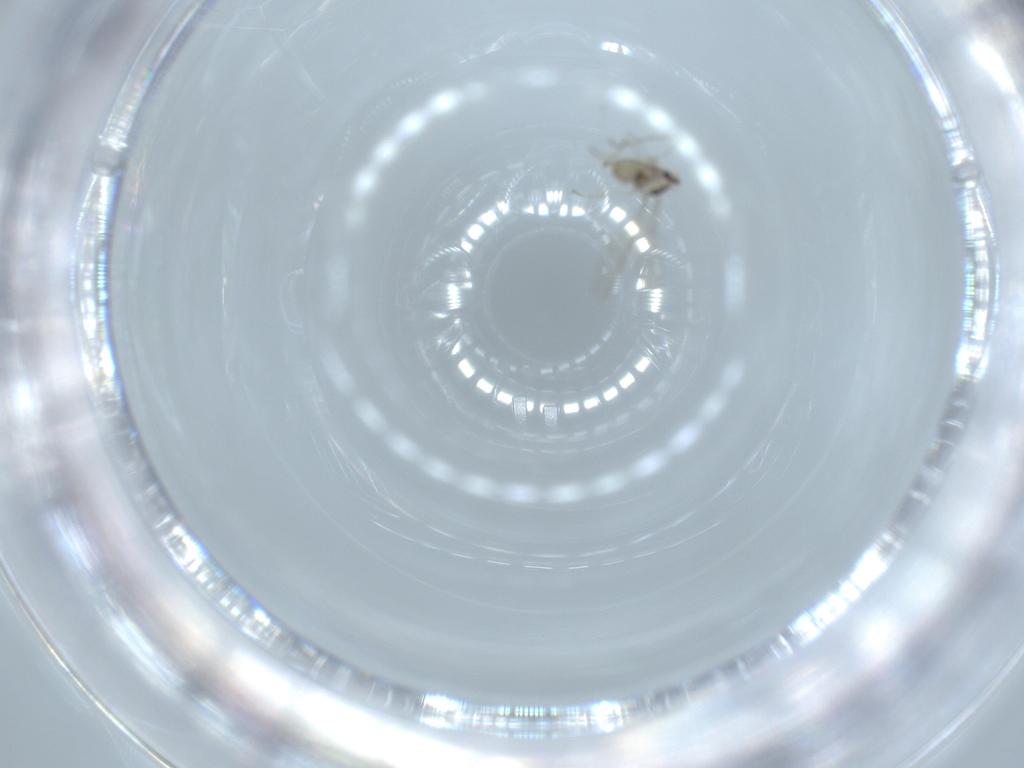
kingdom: Animalia
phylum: Arthropoda
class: Insecta
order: Diptera
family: Cecidomyiidae
